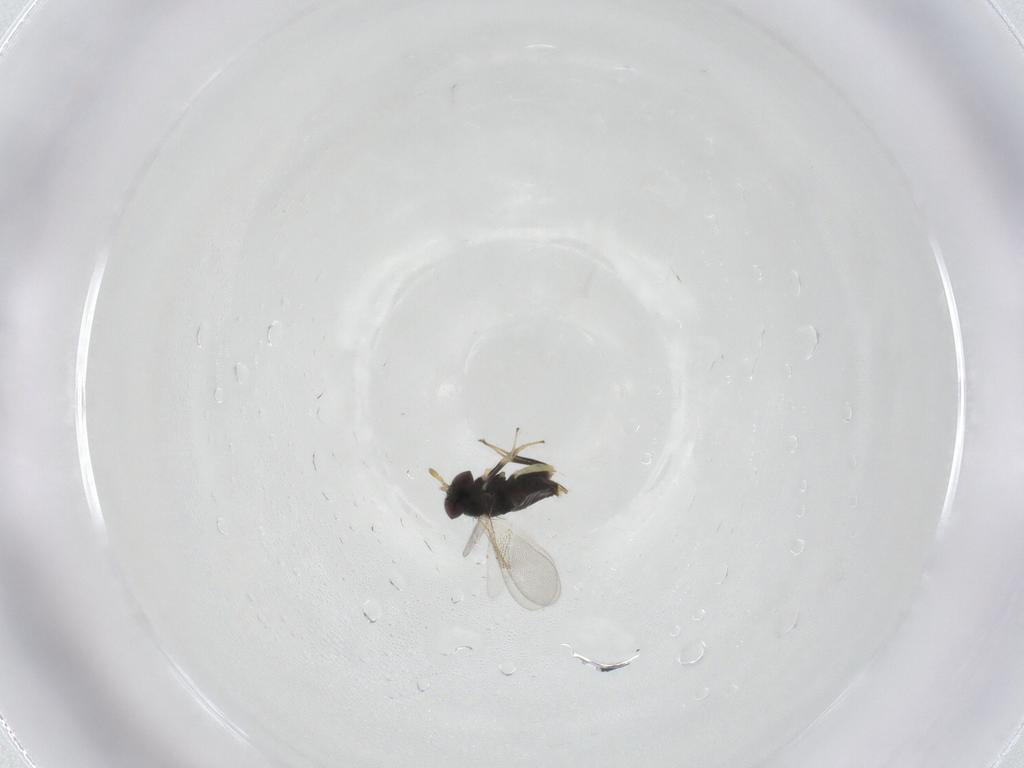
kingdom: Animalia
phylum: Arthropoda
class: Insecta
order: Hymenoptera
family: Aphelinidae
